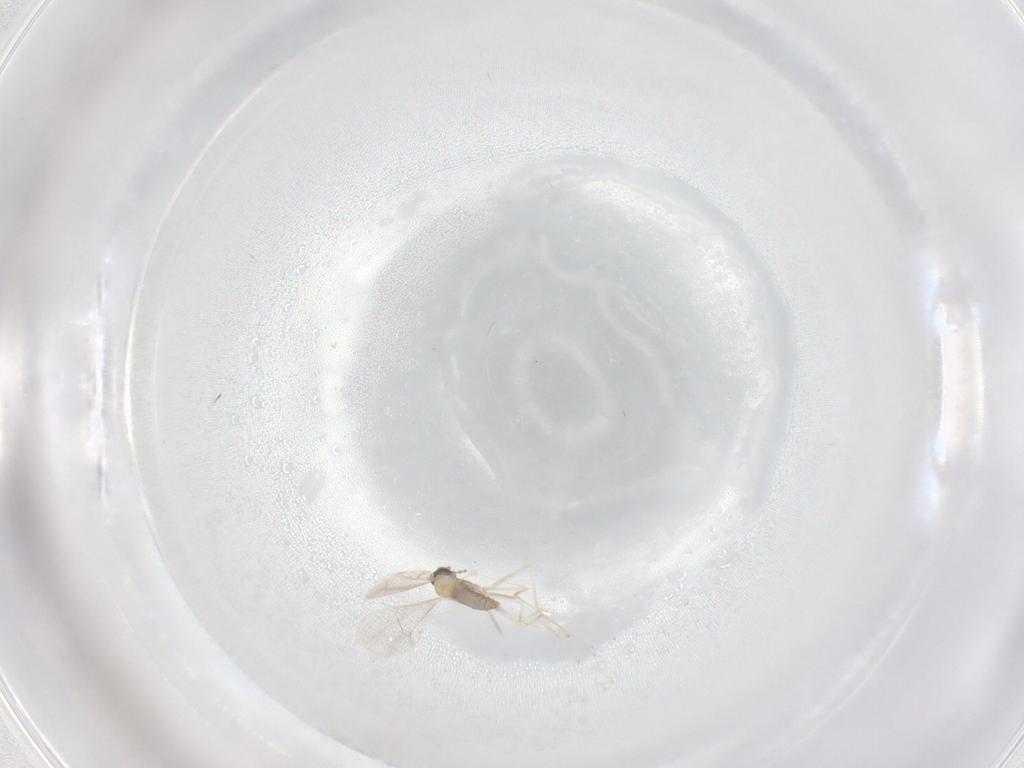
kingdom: Animalia
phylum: Arthropoda
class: Insecta
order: Diptera
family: Cecidomyiidae
